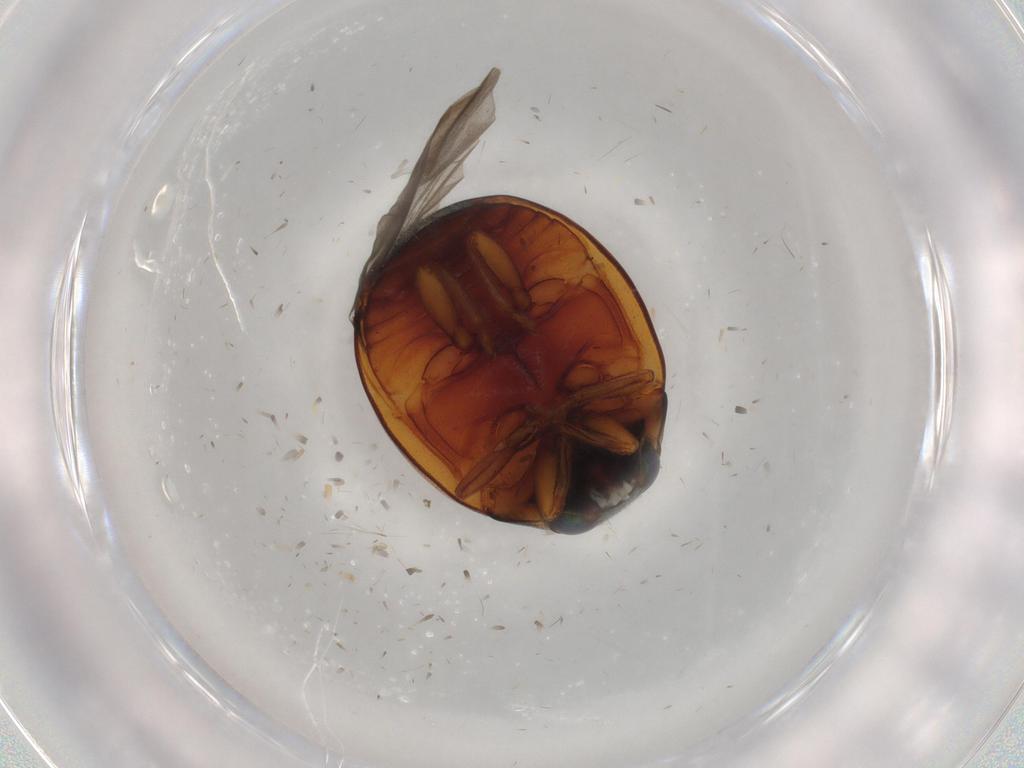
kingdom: Animalia
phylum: Arthropoda
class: Insecta
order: Coleoptera
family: Coccinellidae
